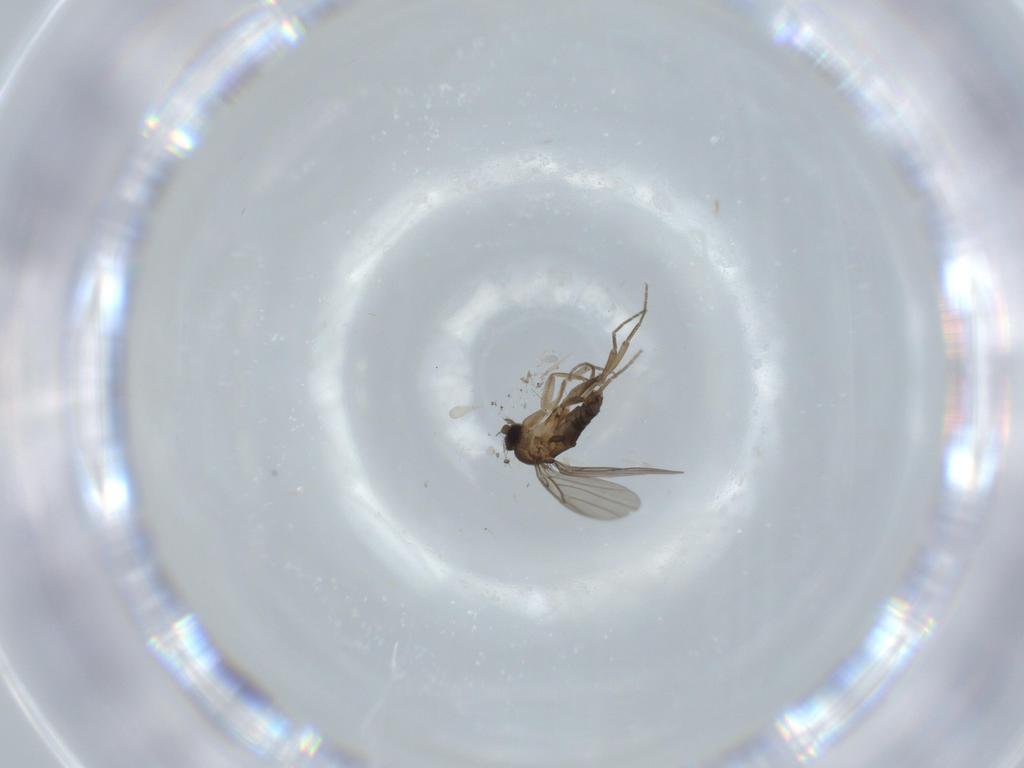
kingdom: Animalia
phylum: Arthropoda
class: Insecta
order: Diptera
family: Phoridae
